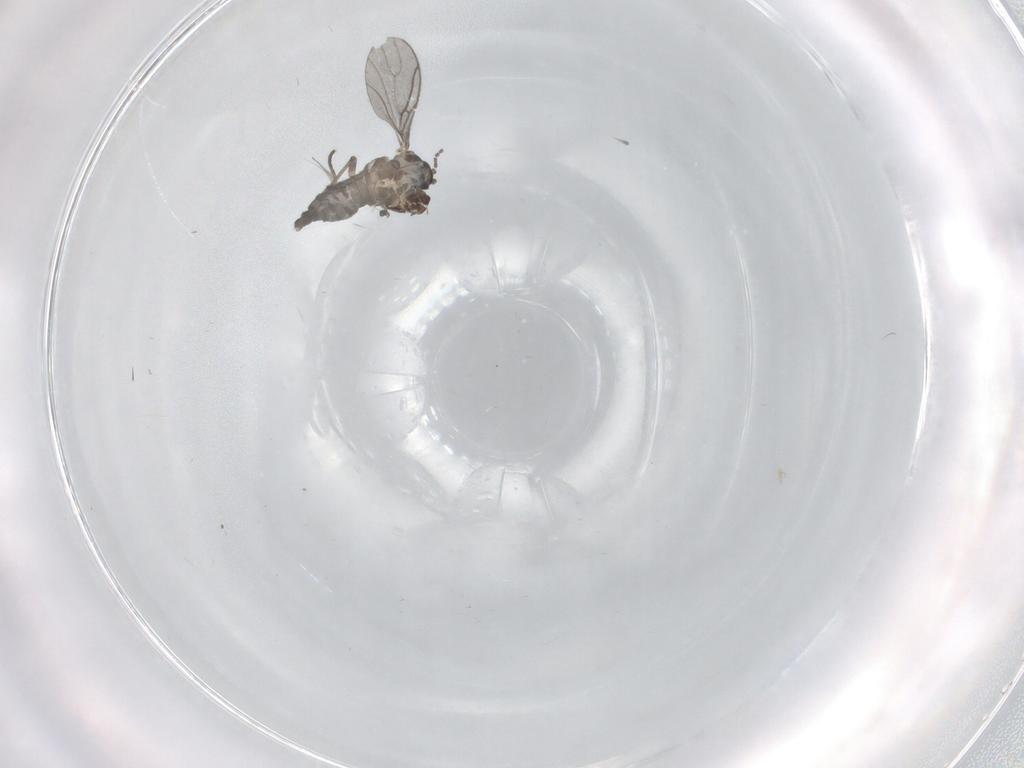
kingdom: Animalia
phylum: Arthropoda
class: Insecta
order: Diptera
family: Sciaridae
